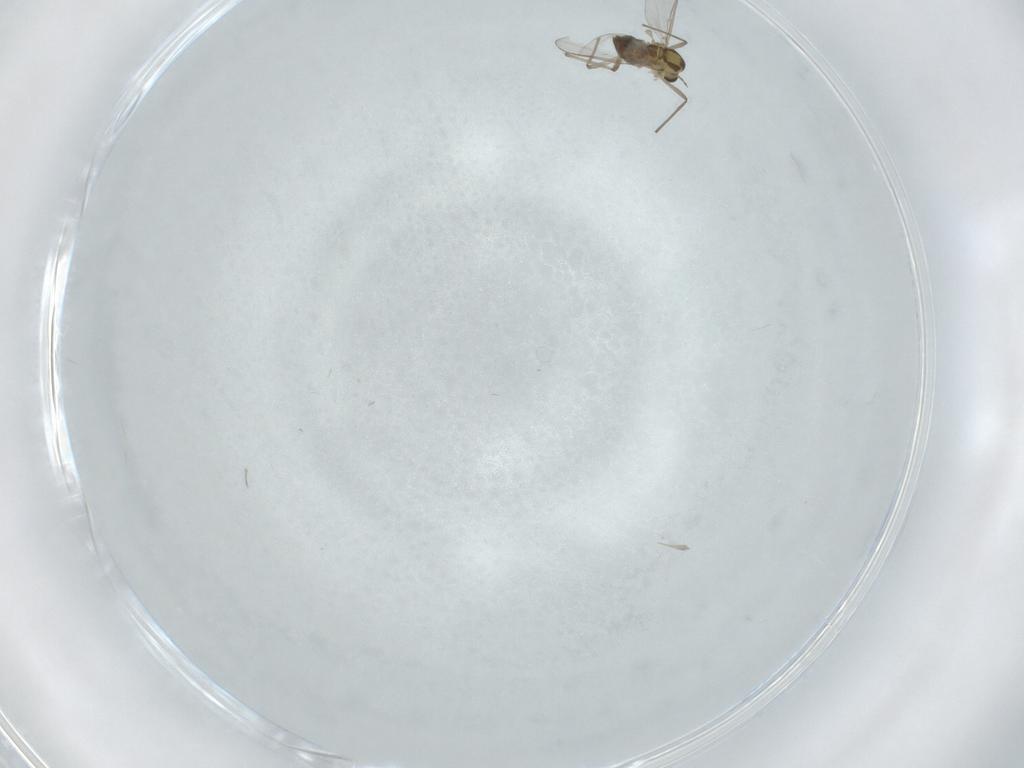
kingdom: Animalia
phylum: Arthropoda
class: Insecta
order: Diptera
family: Chironomidae
